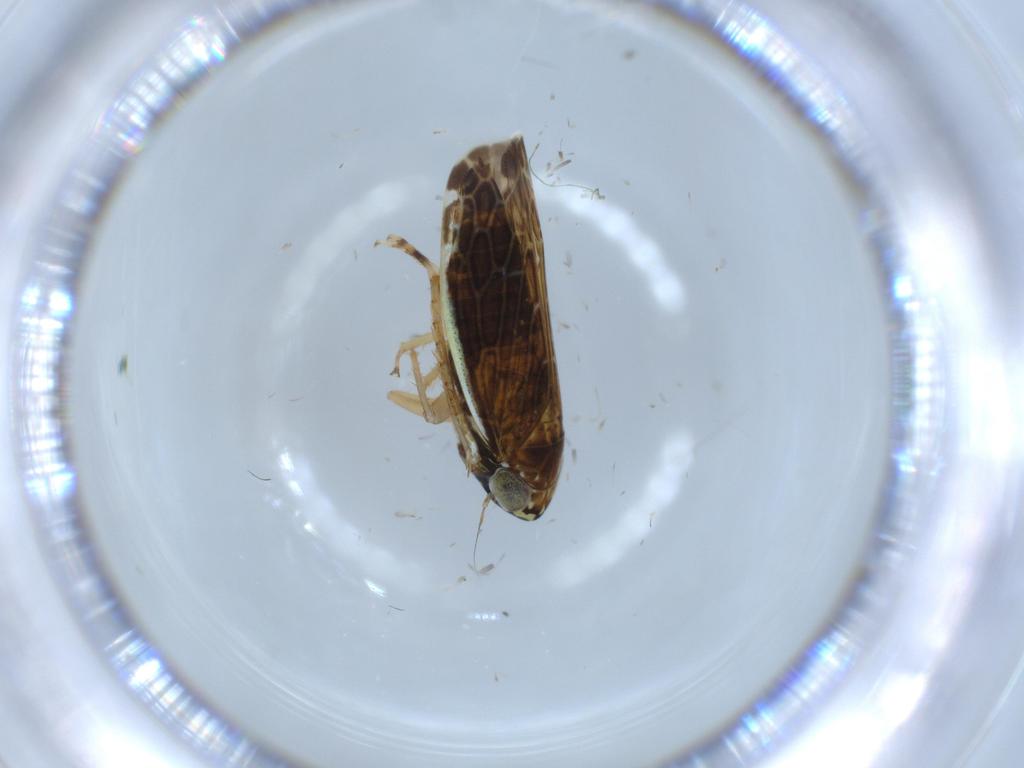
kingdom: Animalia
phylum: Arthropoda
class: Insecta
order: Hemiptera
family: Cicadellidae
